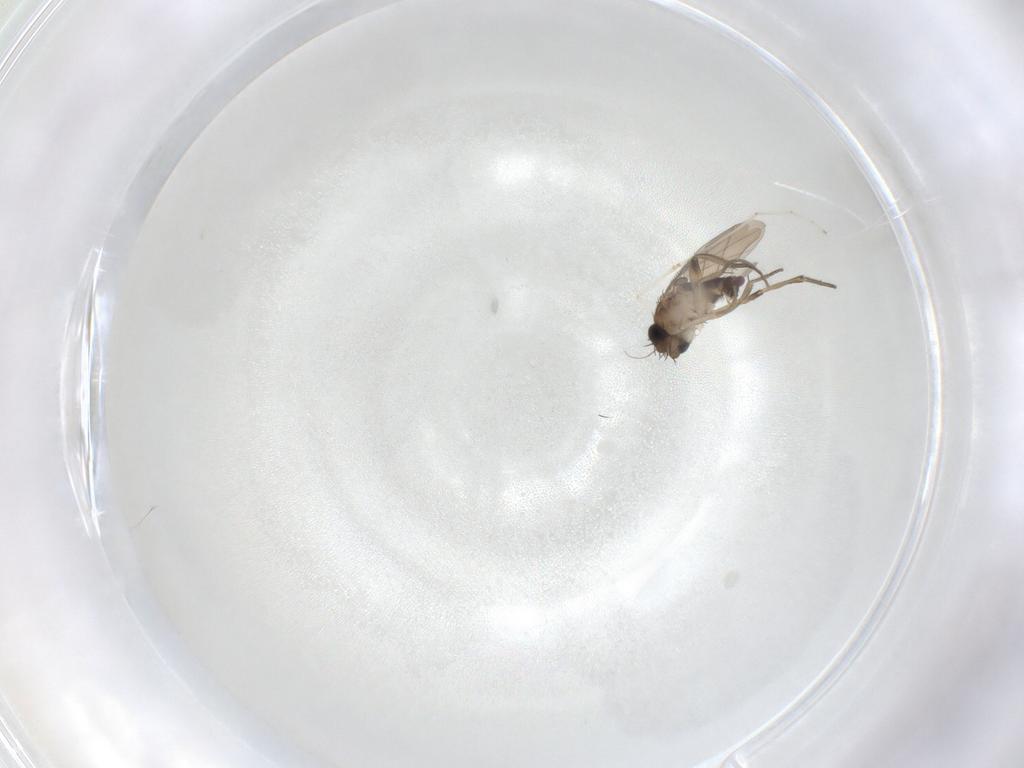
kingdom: Animalia
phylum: Arthropoda
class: Insecta
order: Diptera
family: Phoridae
